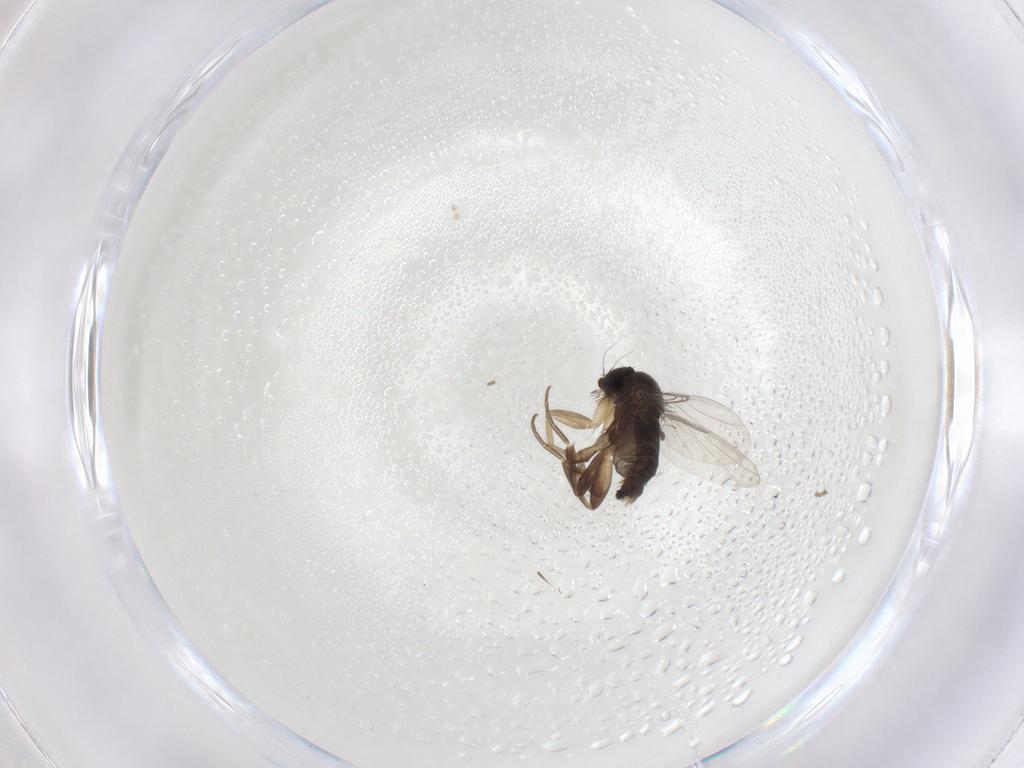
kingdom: Animalia
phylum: Arthropoda
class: Insecta
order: Diptera
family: Phoridae
